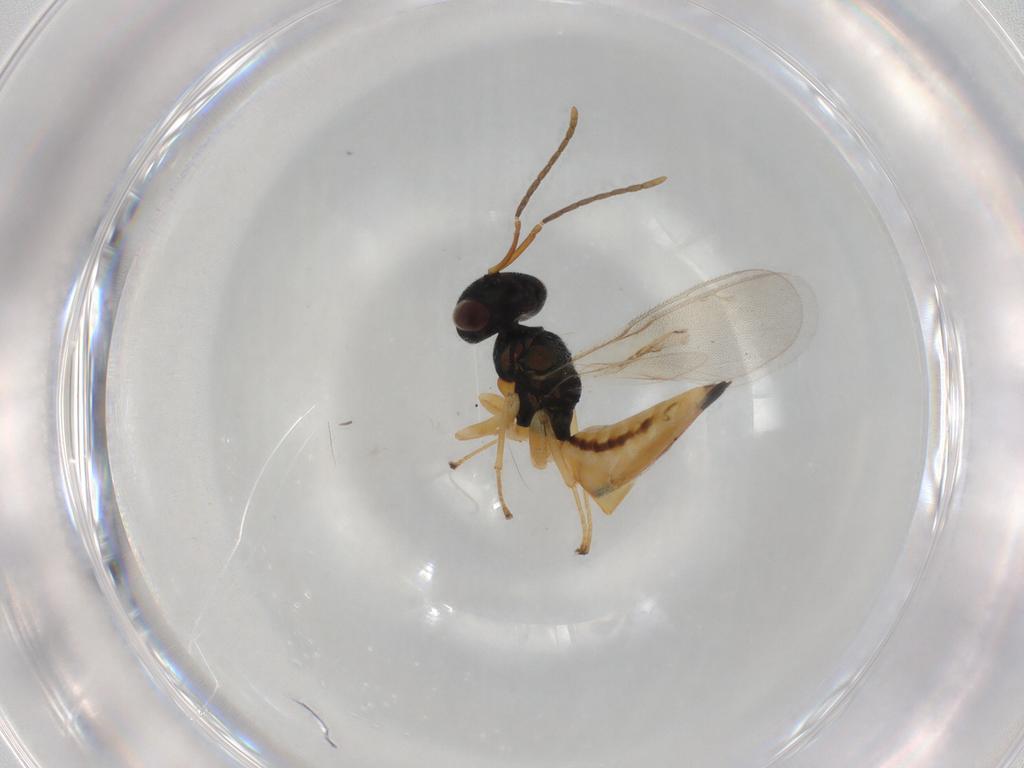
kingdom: Animalia
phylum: Arthropoda
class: Insecta
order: Hymenoptera
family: Pteromalidae
